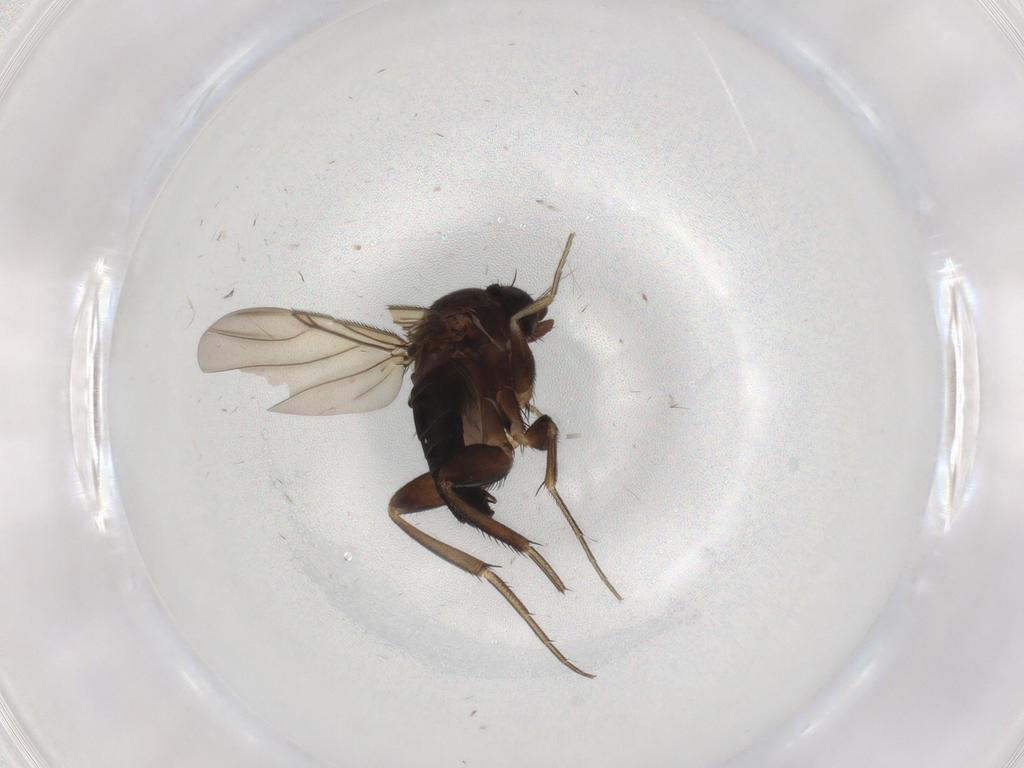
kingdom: Animalia
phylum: Arthropoda
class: Insecta
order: Diptera
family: Phoridae
